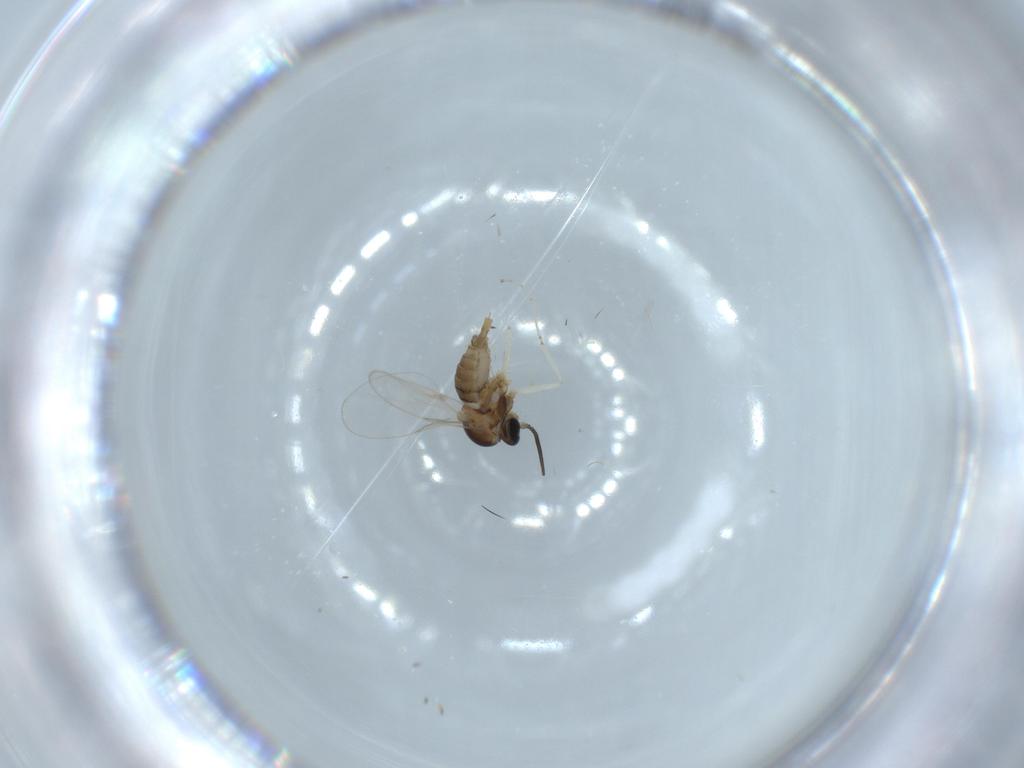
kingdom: Animalia
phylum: Arthropoda
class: Insecta
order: Diptera
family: Cecidomyiidae
